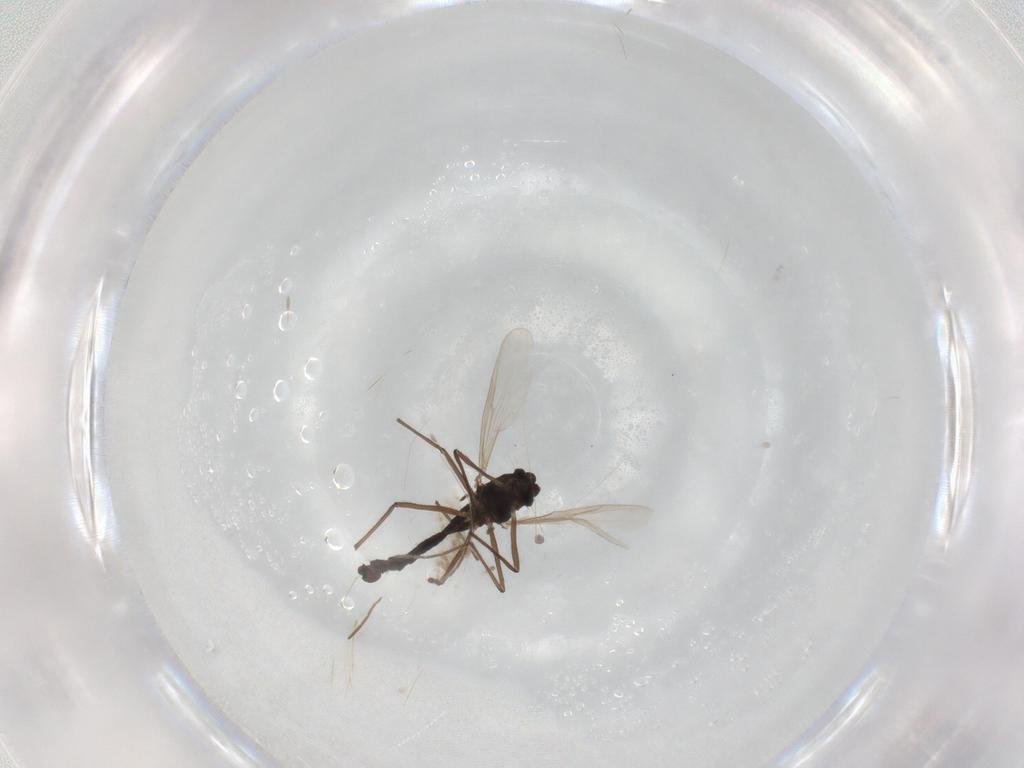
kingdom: Animalia
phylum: Arthropoda
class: Insecta
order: Diptera
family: Chironomidae
